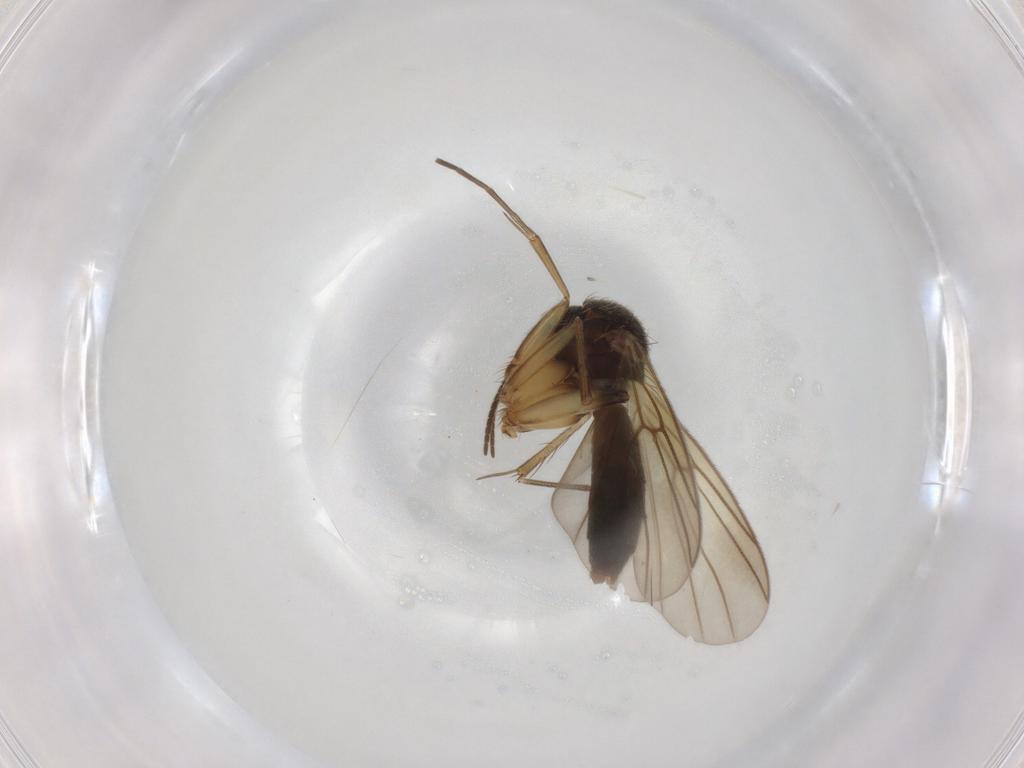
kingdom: Animalia
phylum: Arthropoda
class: Insecta
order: Diptera
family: Mycetophilidae
